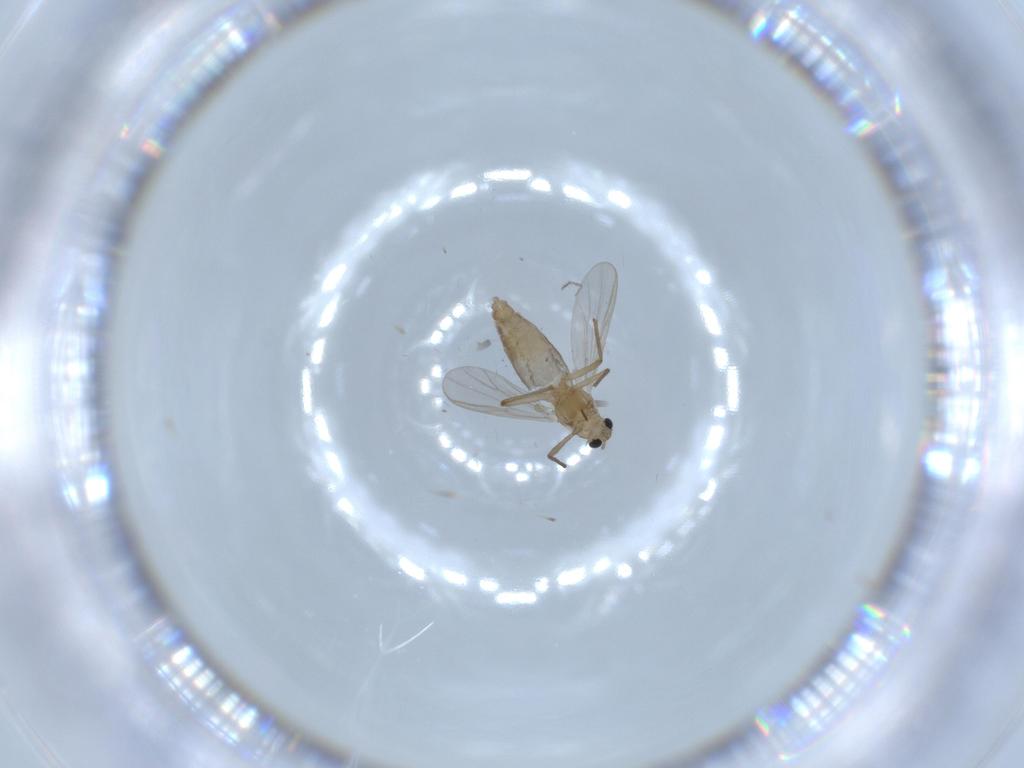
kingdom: Animalia
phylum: Arthropoda
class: Insecta
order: Diptera
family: Chironomidae
